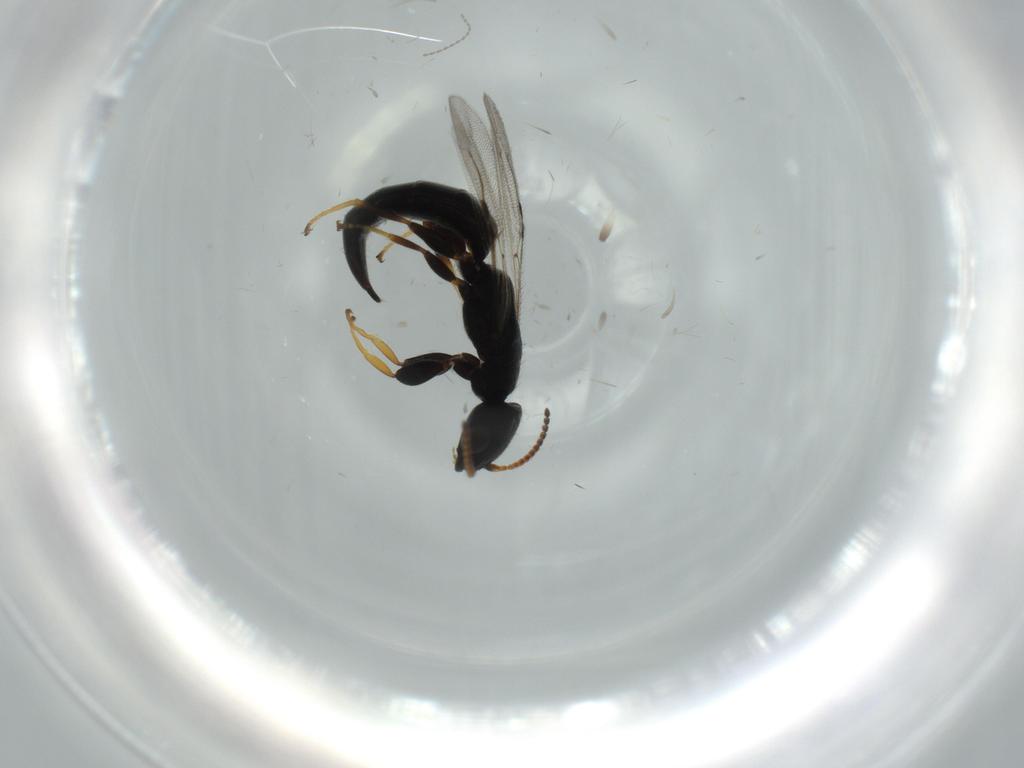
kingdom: Animalia
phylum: Arthropoda
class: Insecta
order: Hymenoptera
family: Bethylidae
